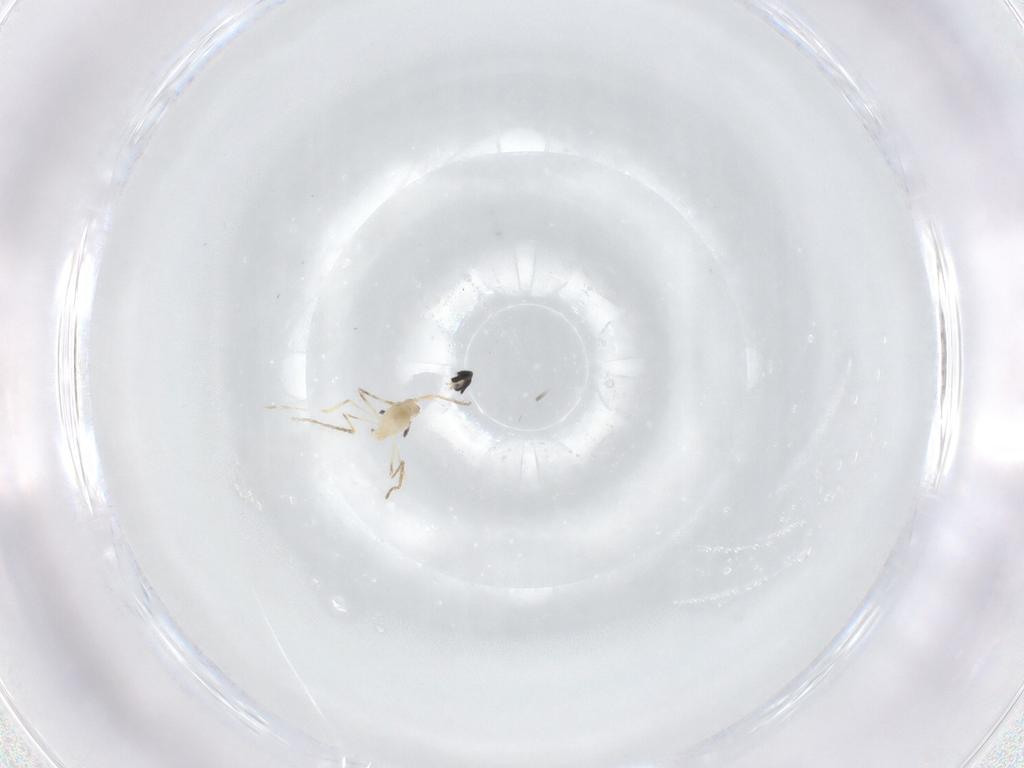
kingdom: Animalia
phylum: Arthropoda
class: Insecta
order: Diptera
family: Cecidomyiidae
